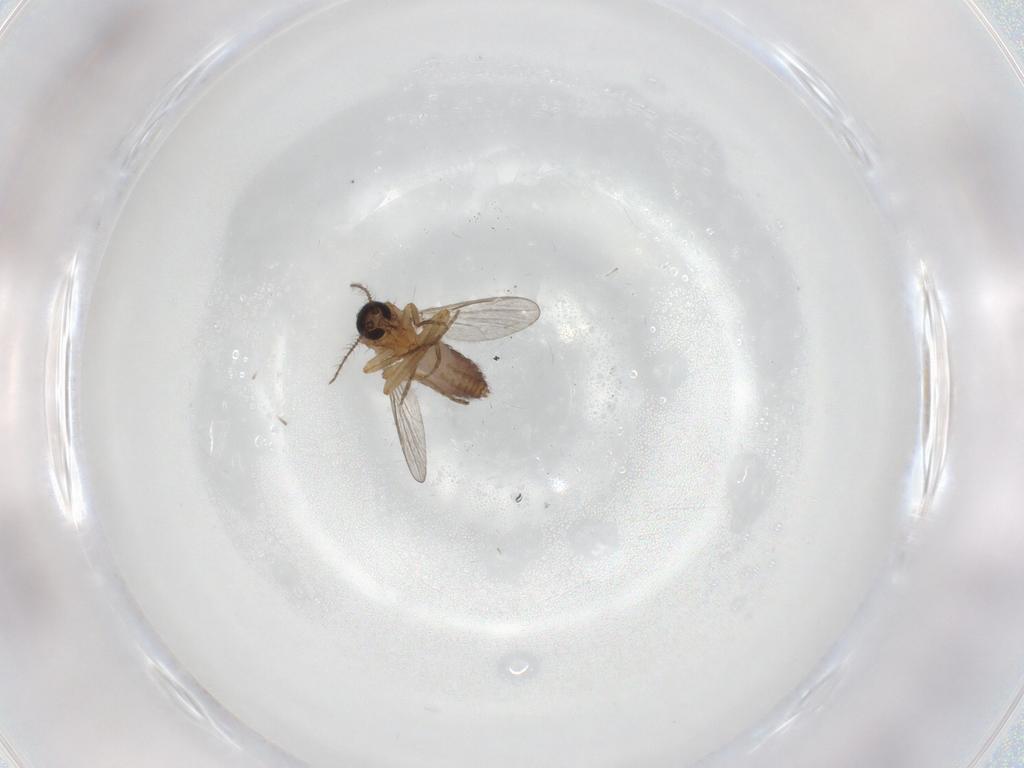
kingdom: Animalia
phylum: Arthropoda
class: Insecta
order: Diptera
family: Ceratopogonidae
